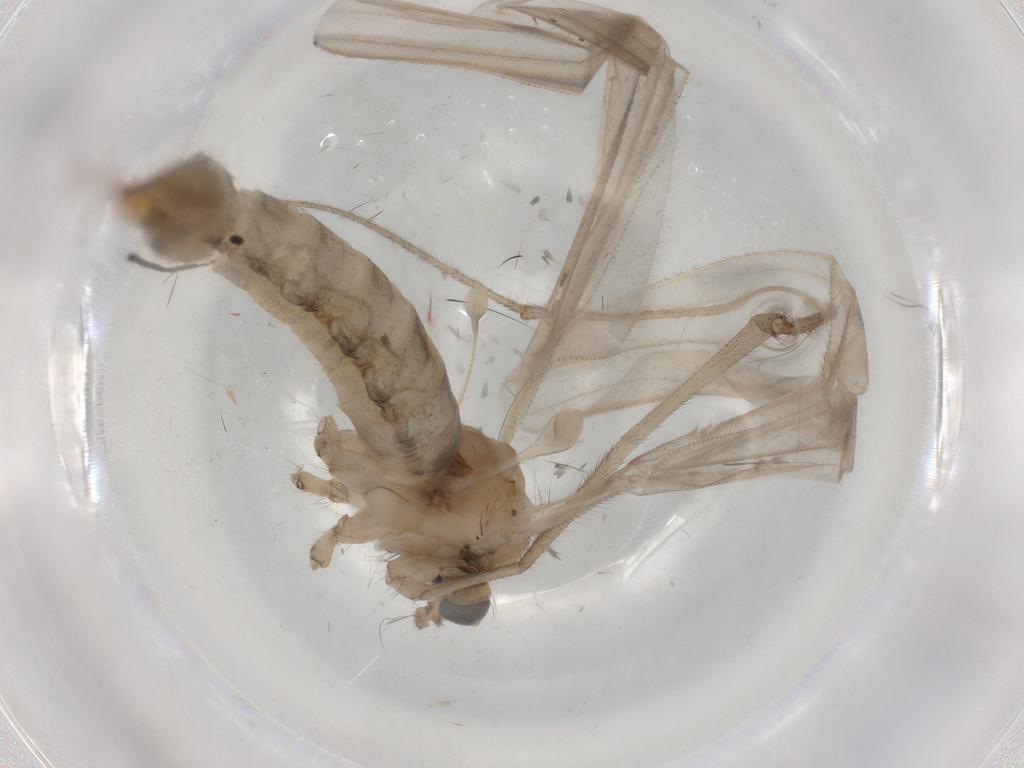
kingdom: Animalia
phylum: Arthropoda
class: Insecta
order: Diptera
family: Limoniidae
